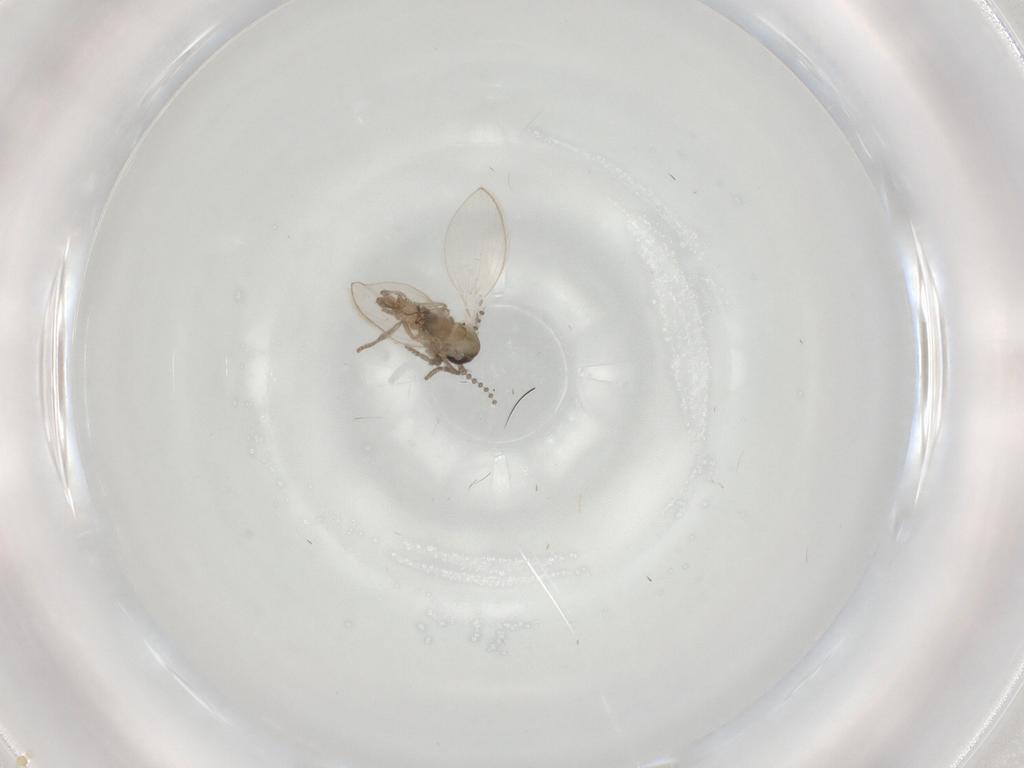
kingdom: Animalia
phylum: Arthropoda
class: Insecta
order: Diptera
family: Psychodidae
